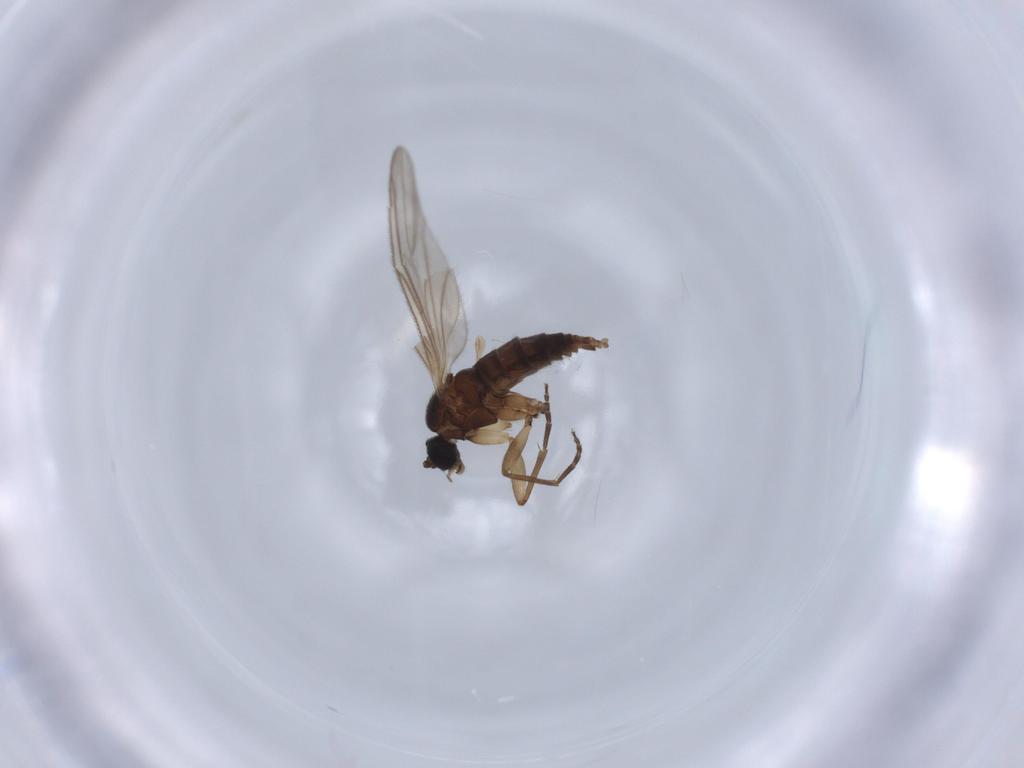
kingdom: Animalia
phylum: Arthropoda
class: Insecta
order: Diptera
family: Sciaridae
